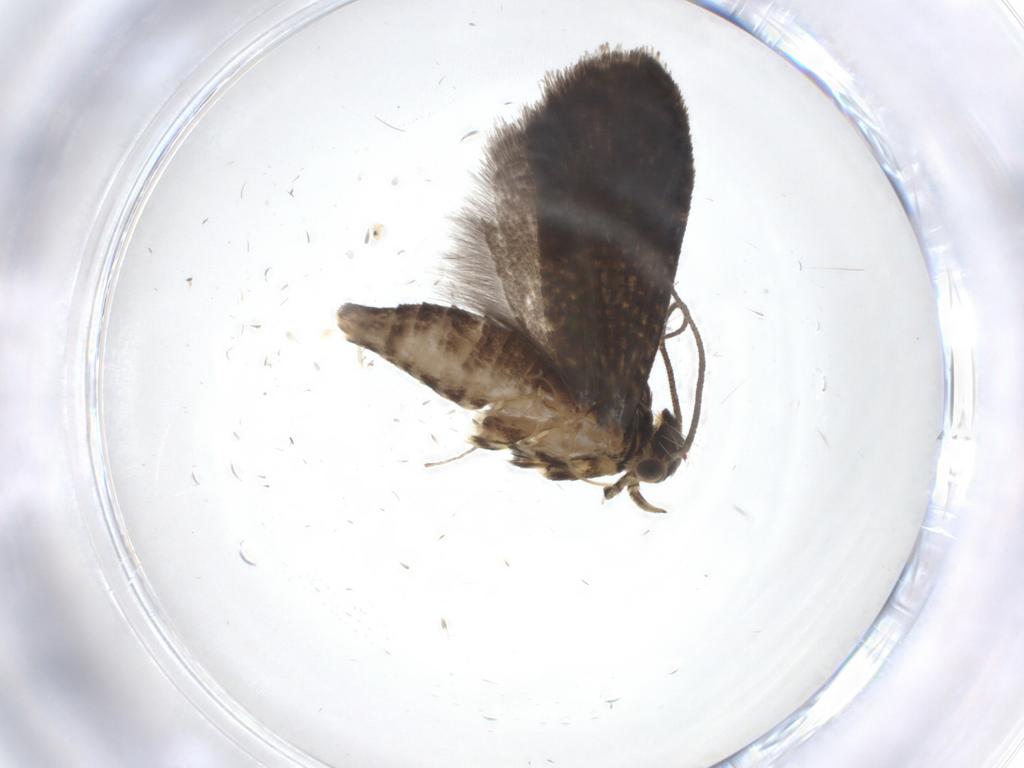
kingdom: Animalia
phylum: Arthropoda
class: Insecta
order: Lepidoptera
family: Geometridae
